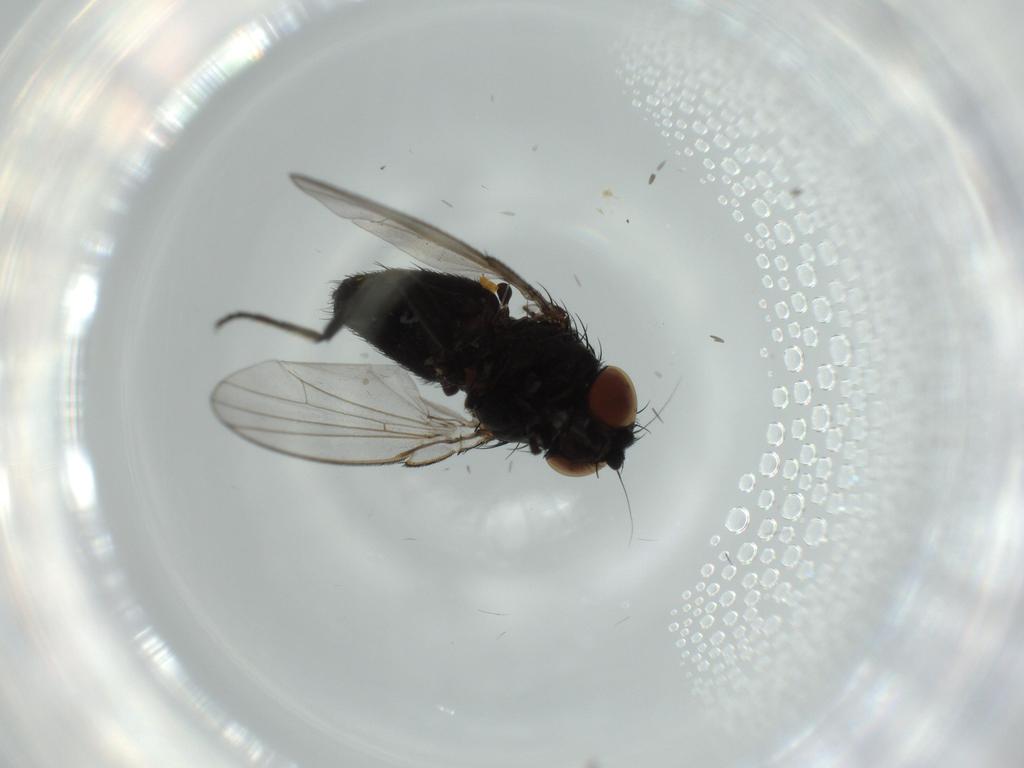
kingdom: Animalia
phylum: Arthropoda
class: Insecta
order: Diptera
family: Milichiidae
